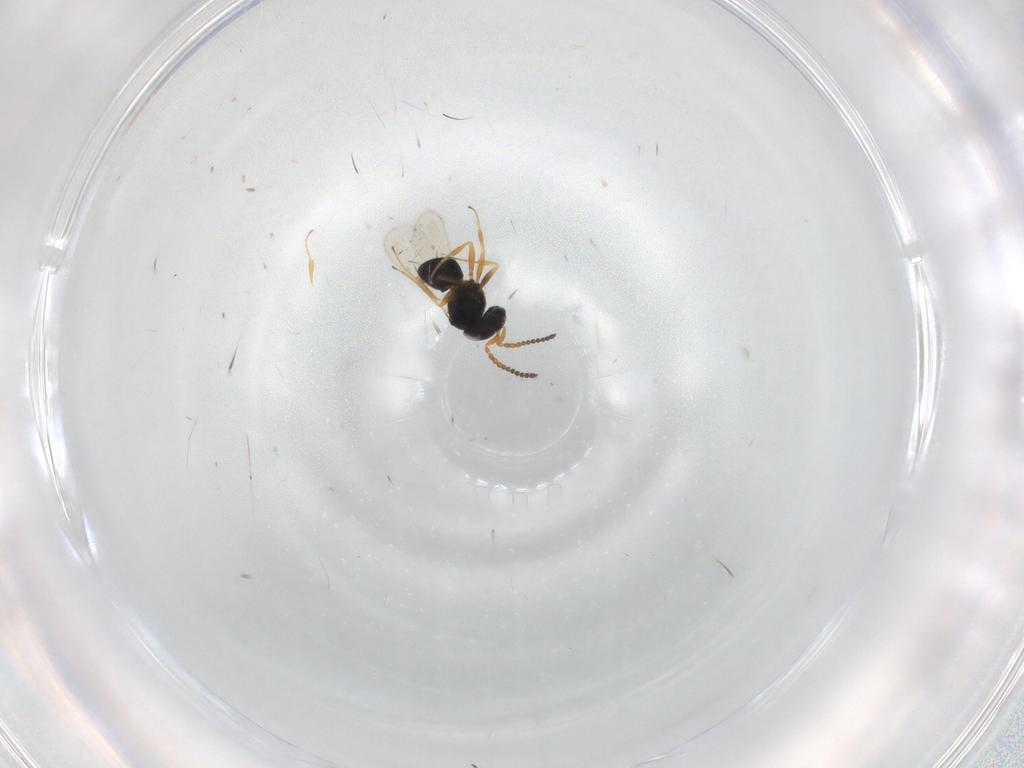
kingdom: Animalia
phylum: Arthropoda
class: Insecta
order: Hymenoptera
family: Scelionidae
